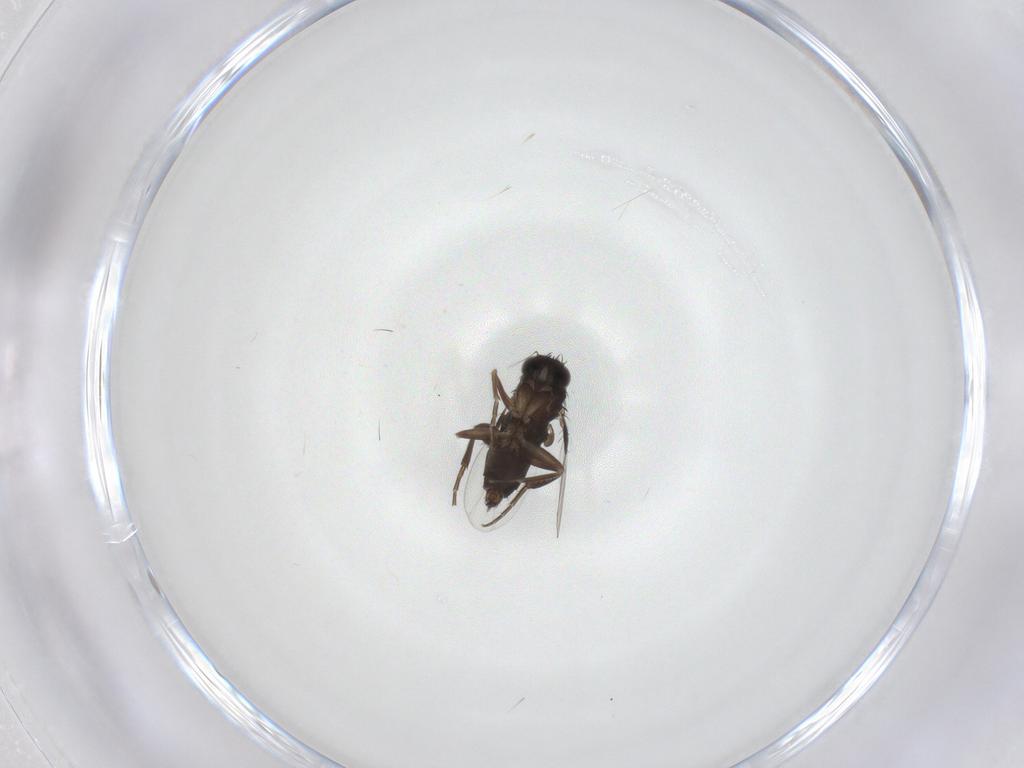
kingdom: Animalia
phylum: Arthropoda
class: Insecta
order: Diptera
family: Phoridae
